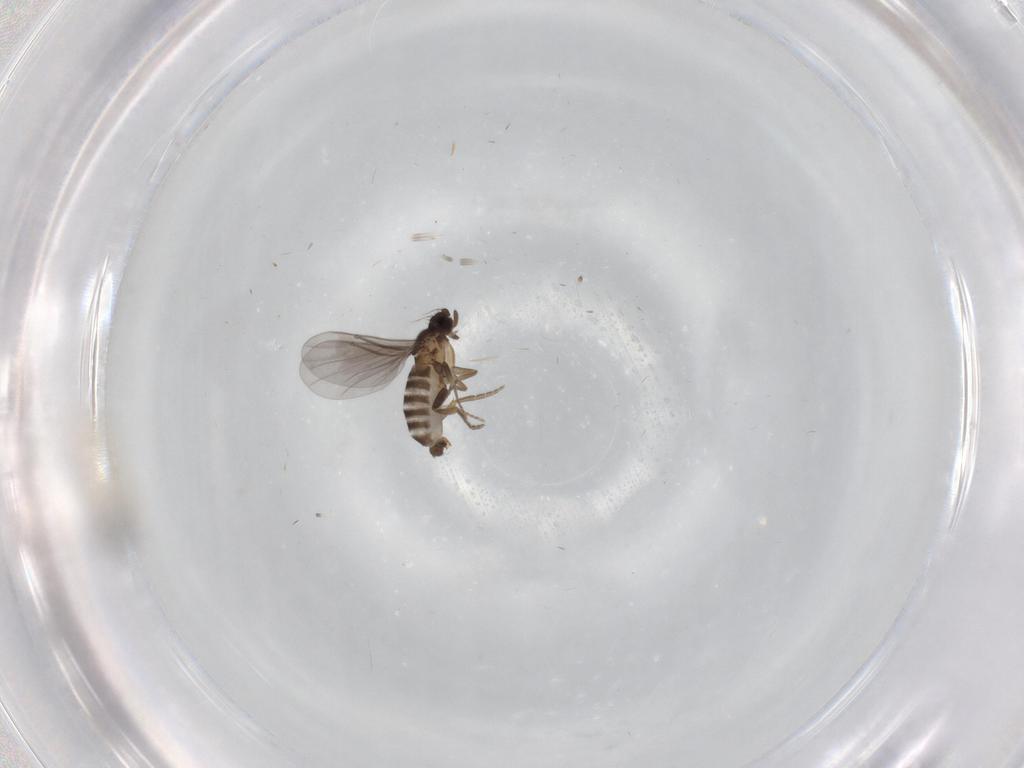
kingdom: Animalia
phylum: Arthropoda
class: Insecta
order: Diptera
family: Cecidomyiidae
